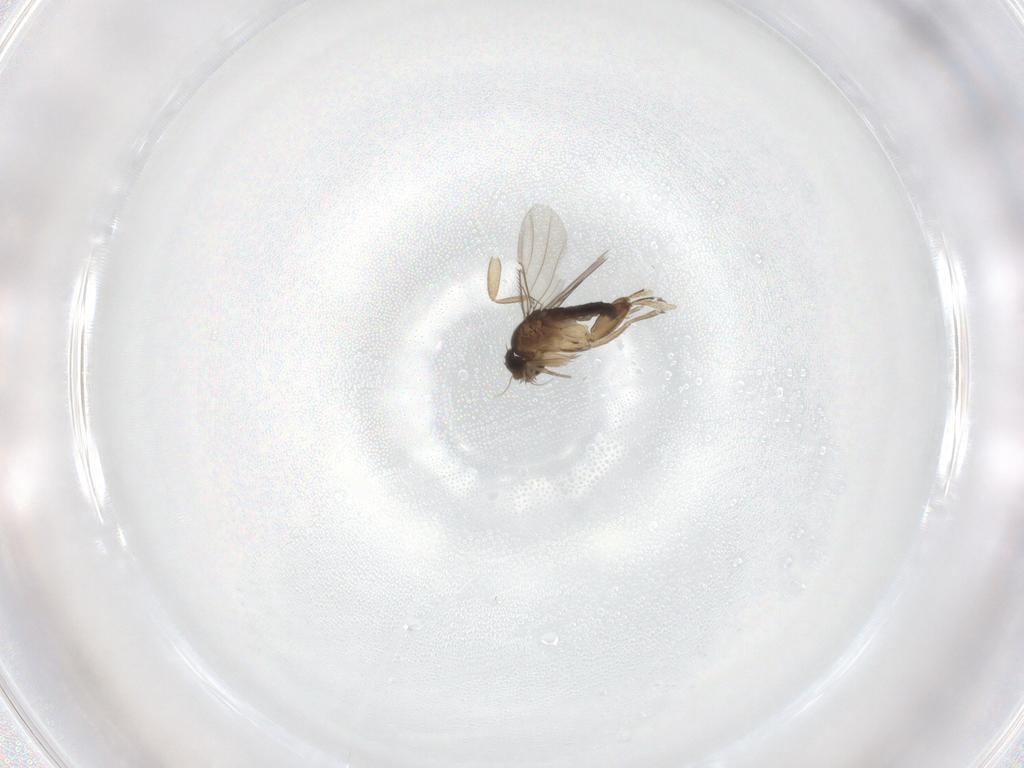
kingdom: Animalia
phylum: Arthropoda
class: Insecta
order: Diptera
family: Phoridae
